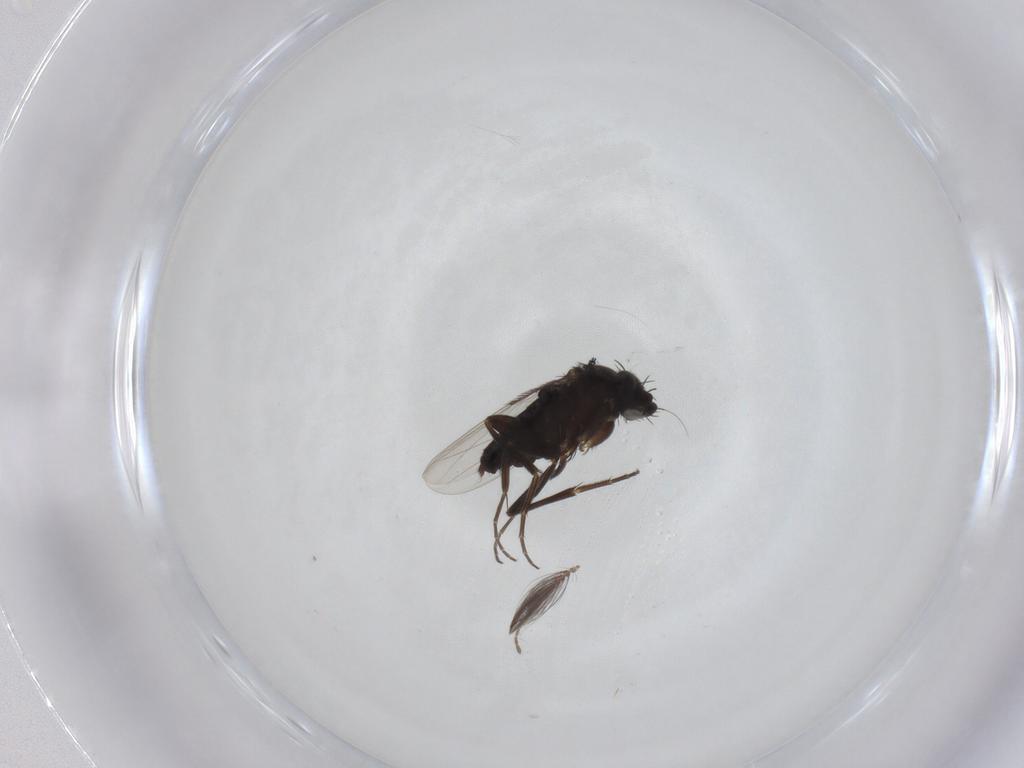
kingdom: Animalia
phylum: Arthropoda
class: Insecta
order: Diptera
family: Phoridae
